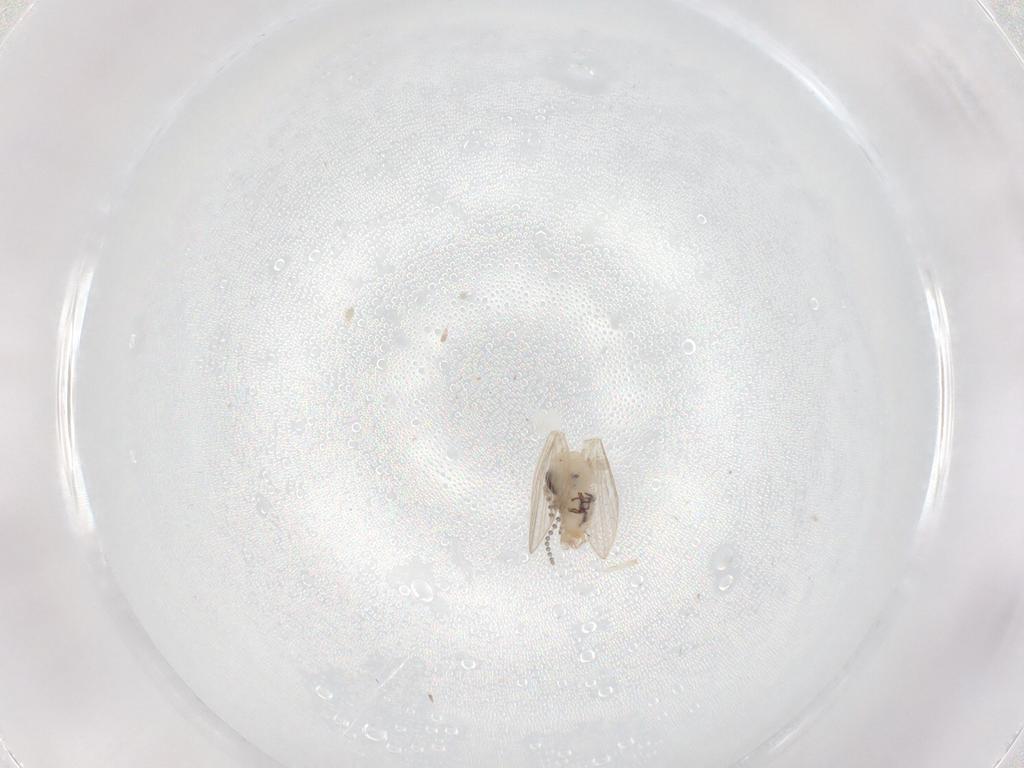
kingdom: Animalia
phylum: Arthropoda
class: Insecta
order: Diptera
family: Psychodidae
